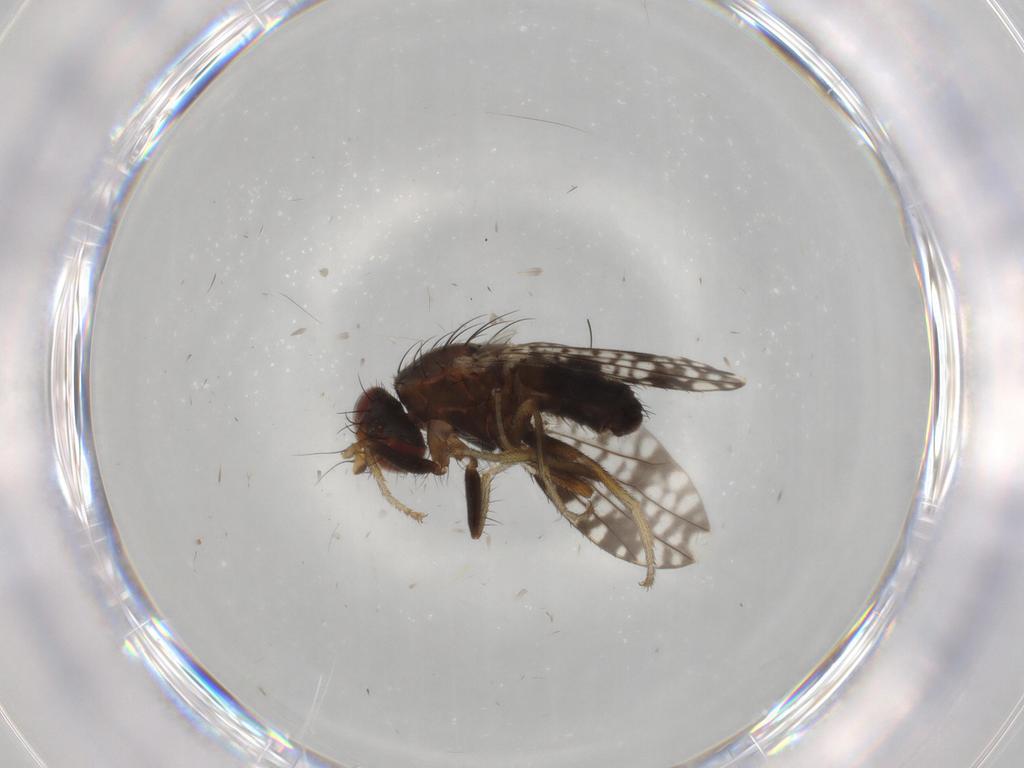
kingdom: Animalia
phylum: Arthropoda
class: Insecta
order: Diptera
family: Tephritidae
